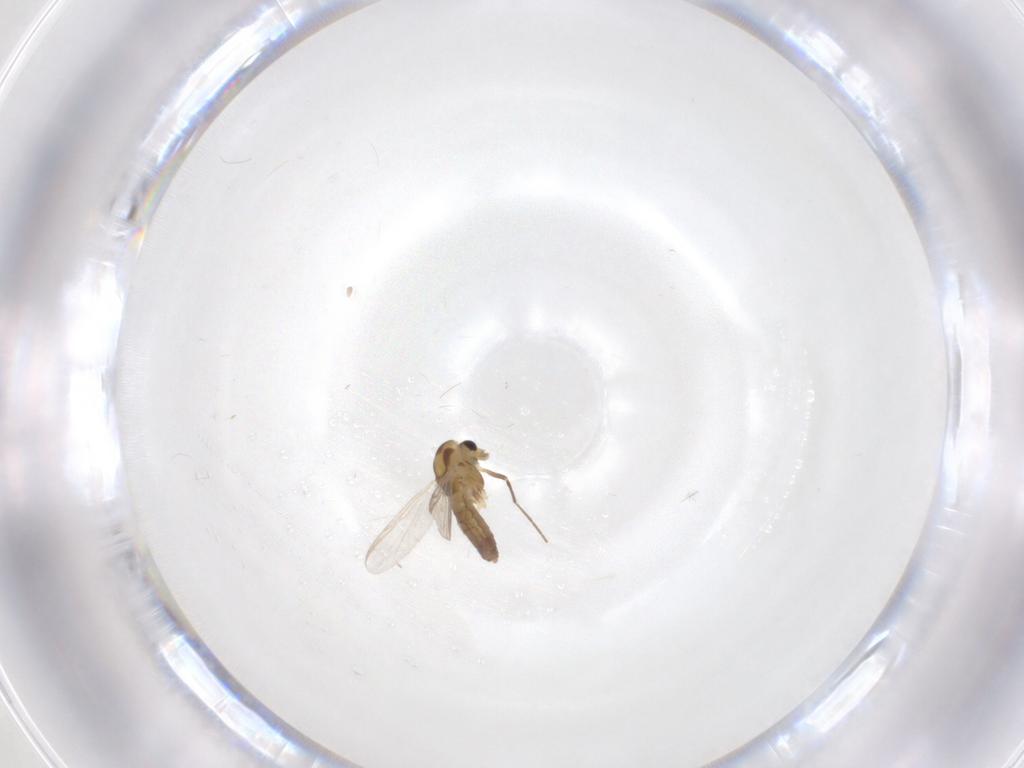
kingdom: Animalia
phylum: Arthropoda
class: Insecta
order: Diptera
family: Chironomidae
